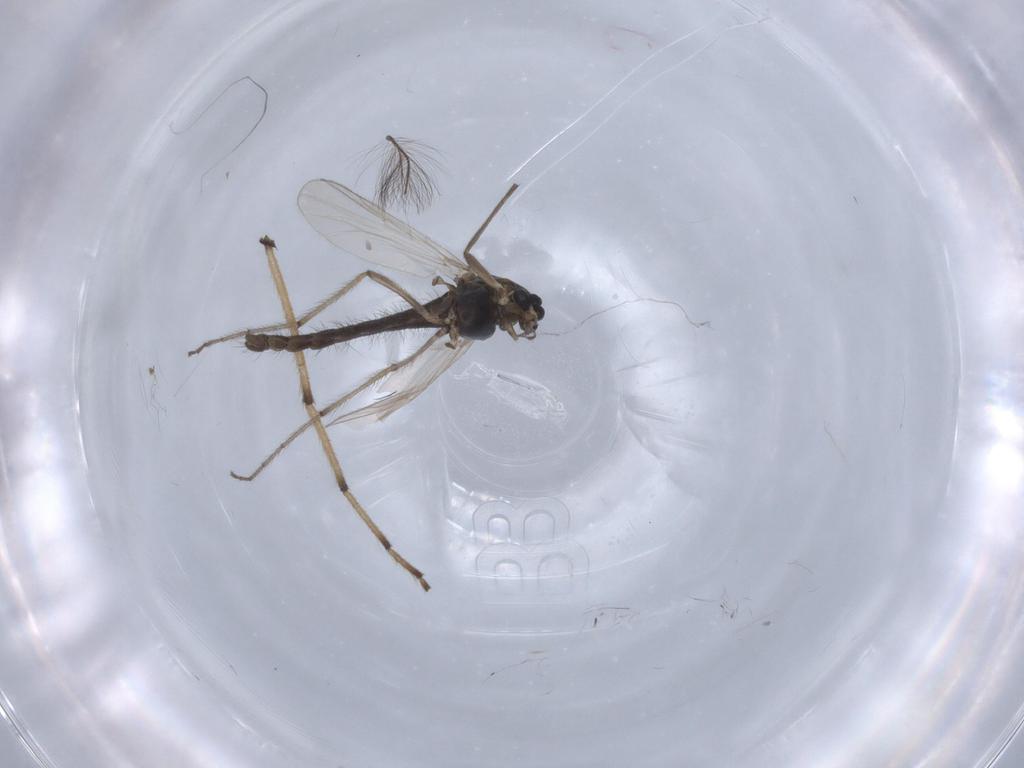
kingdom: Animalia
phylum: Arthropoda
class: Insecta
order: Diptera
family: Chironomidae
